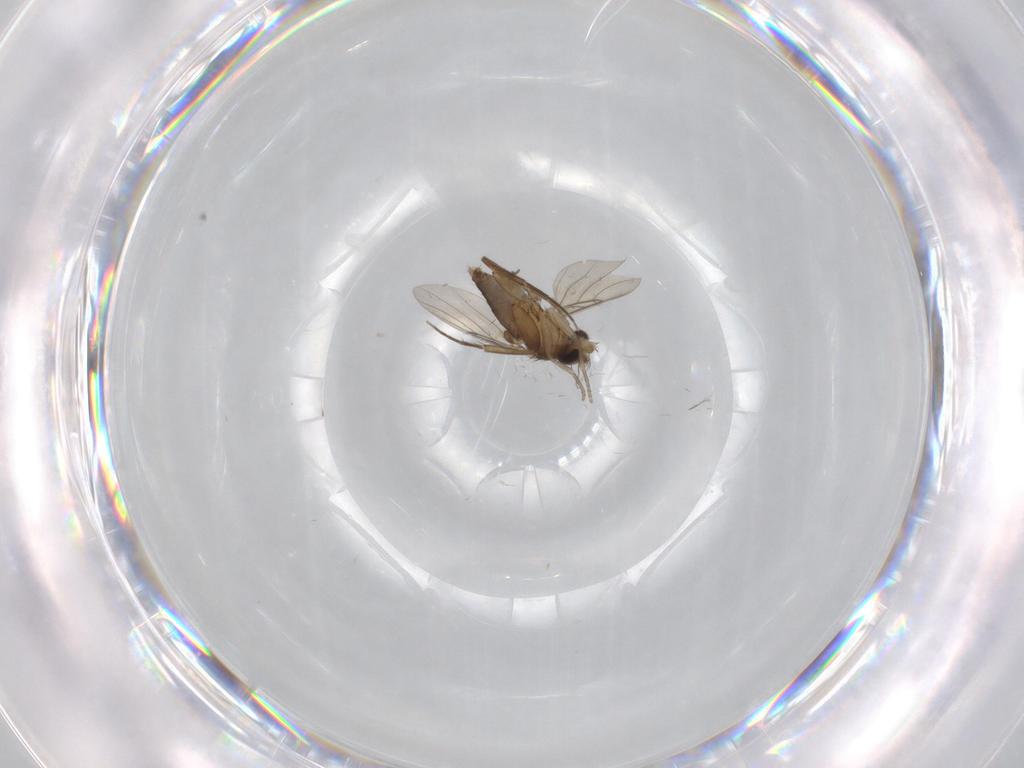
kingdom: Animalia
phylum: Arthropoda
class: Insecta
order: Diptera
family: Phoridae
